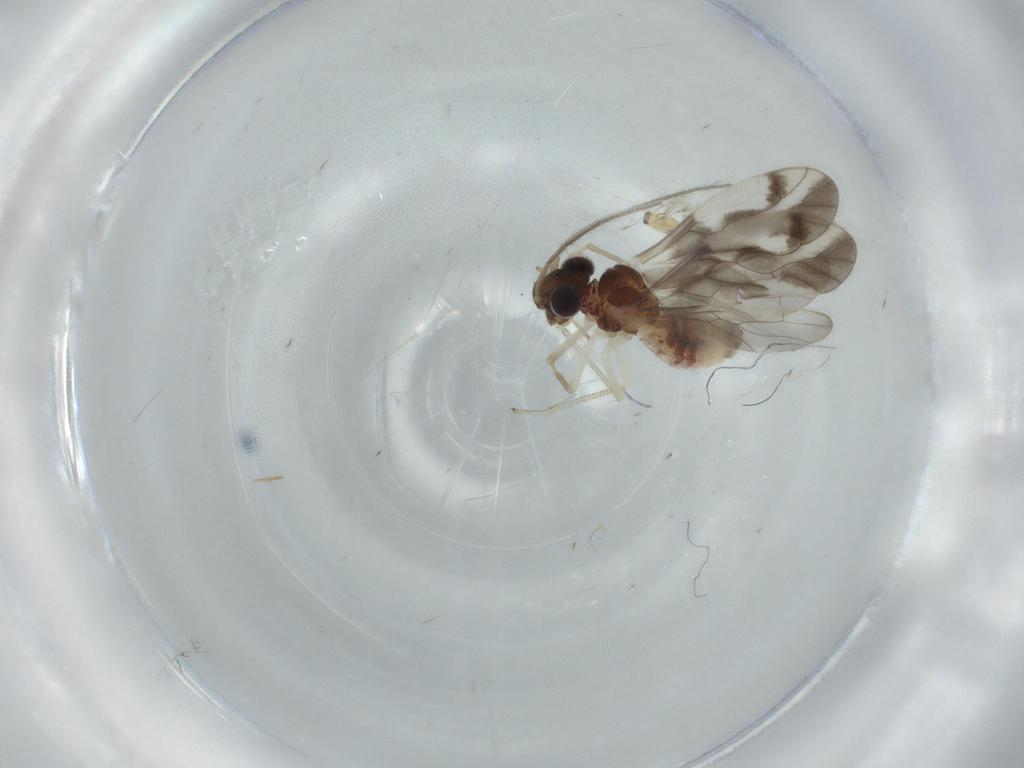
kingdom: Animalia
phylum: Arthropoda
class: Insecta
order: Psocodea
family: Caeciliusidae
